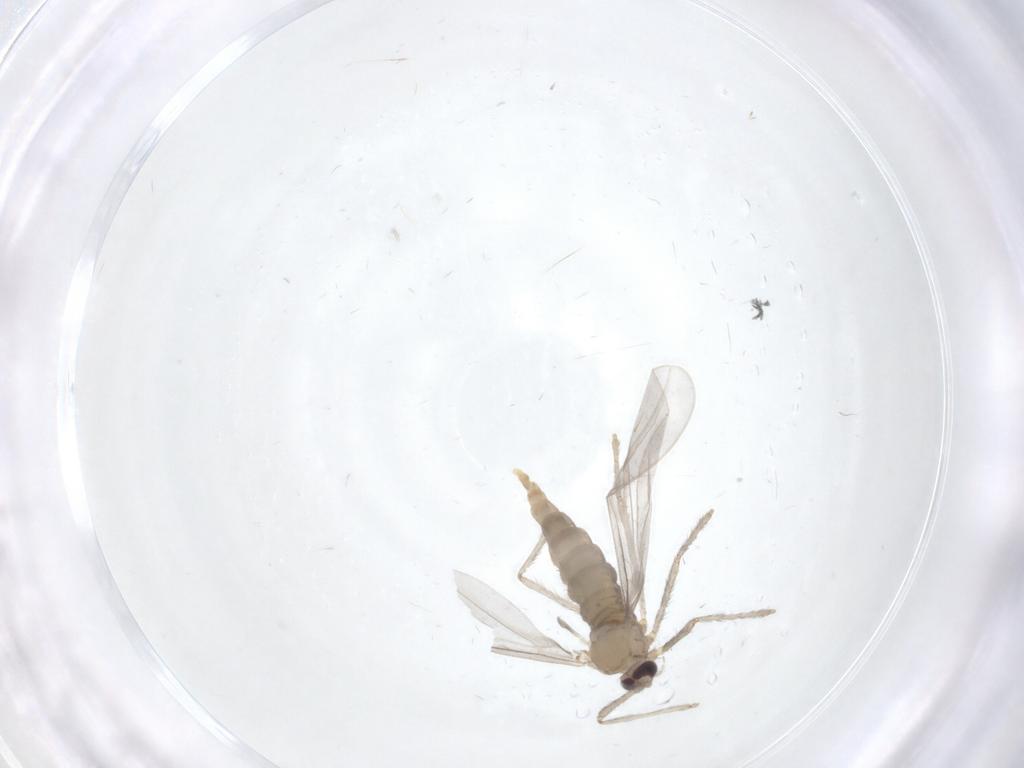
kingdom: Animalia
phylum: Arthropoda
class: Insecta
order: Diptera
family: Cecidomyiidae
